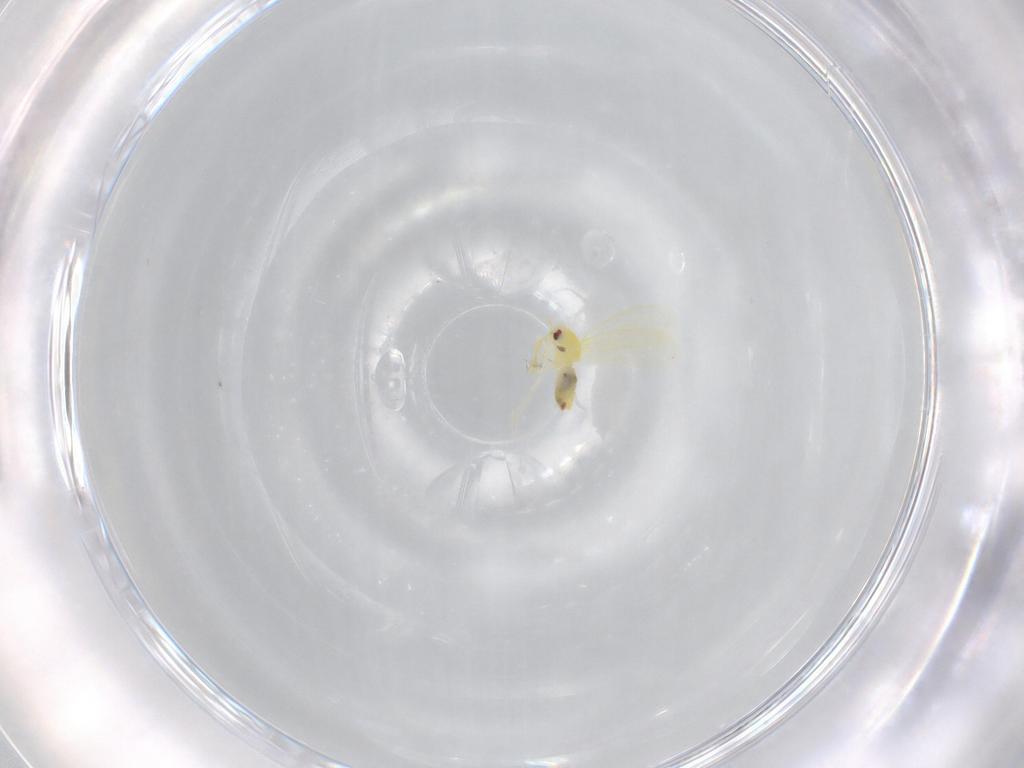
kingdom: Animalia
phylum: Arthropoda
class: Insecta
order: Hemiptera
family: Aleyrodidae
